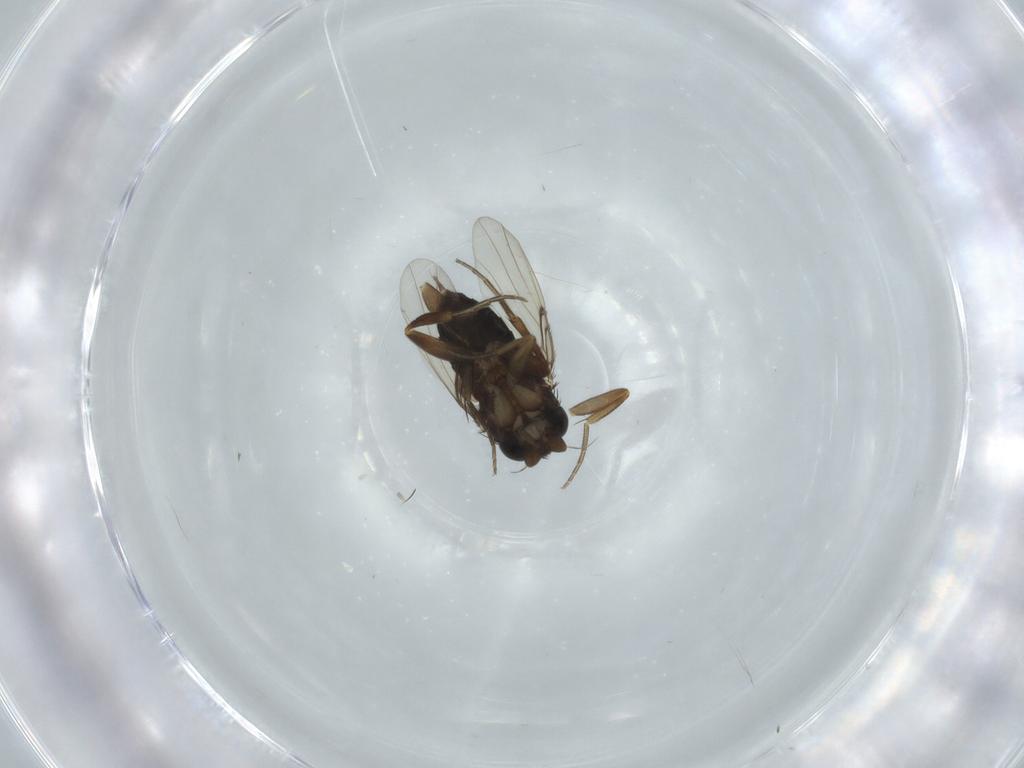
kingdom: Animalia
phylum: Arthropoda
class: Insecta
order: Diptera
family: Phoridae
